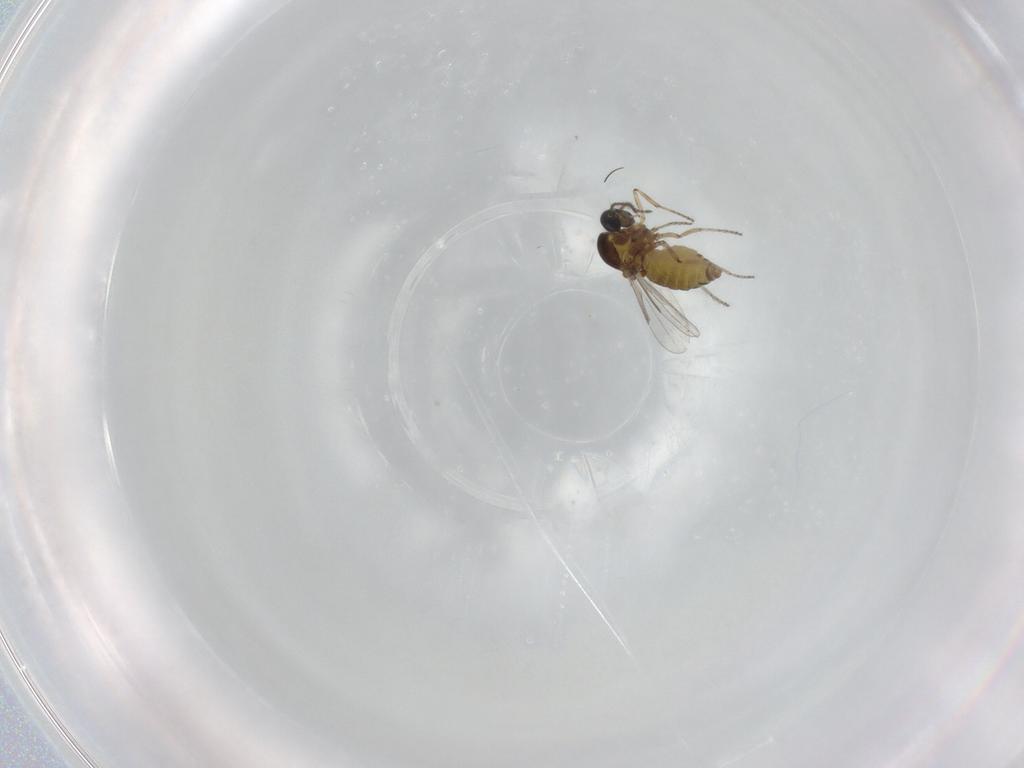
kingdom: Animalia
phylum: Arthropoda
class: Insecta
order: Diptera
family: Ceratopogonidae
